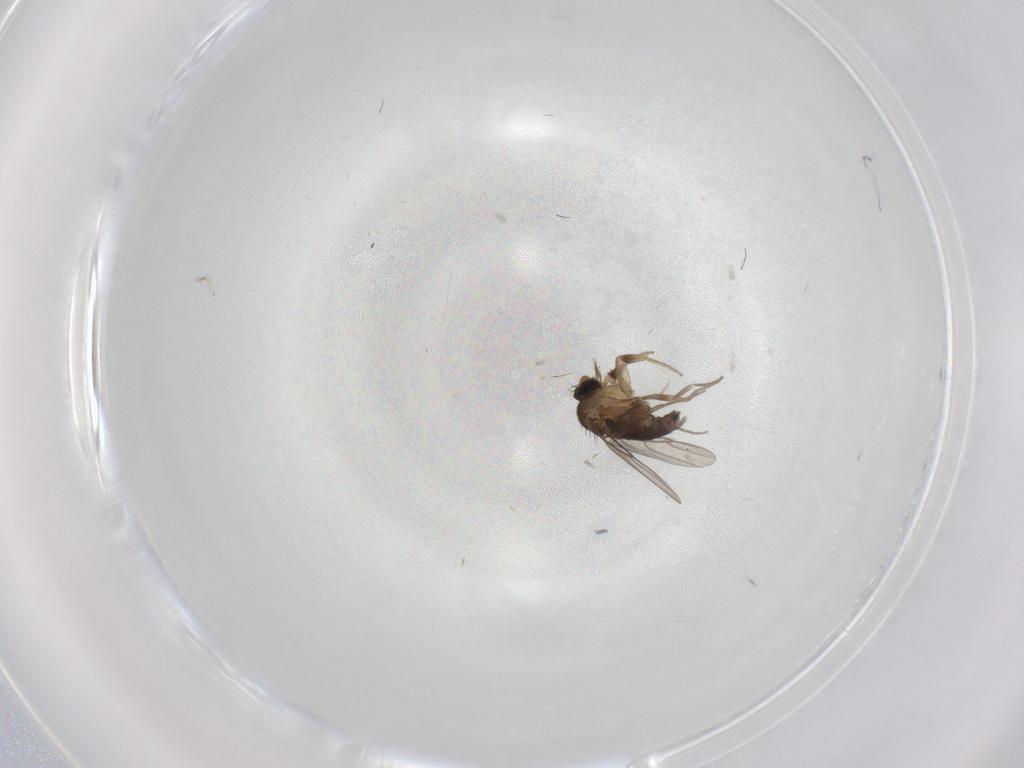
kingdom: Animalia
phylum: Arthropoda
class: Insecta
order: Diptera
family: Phoridae
